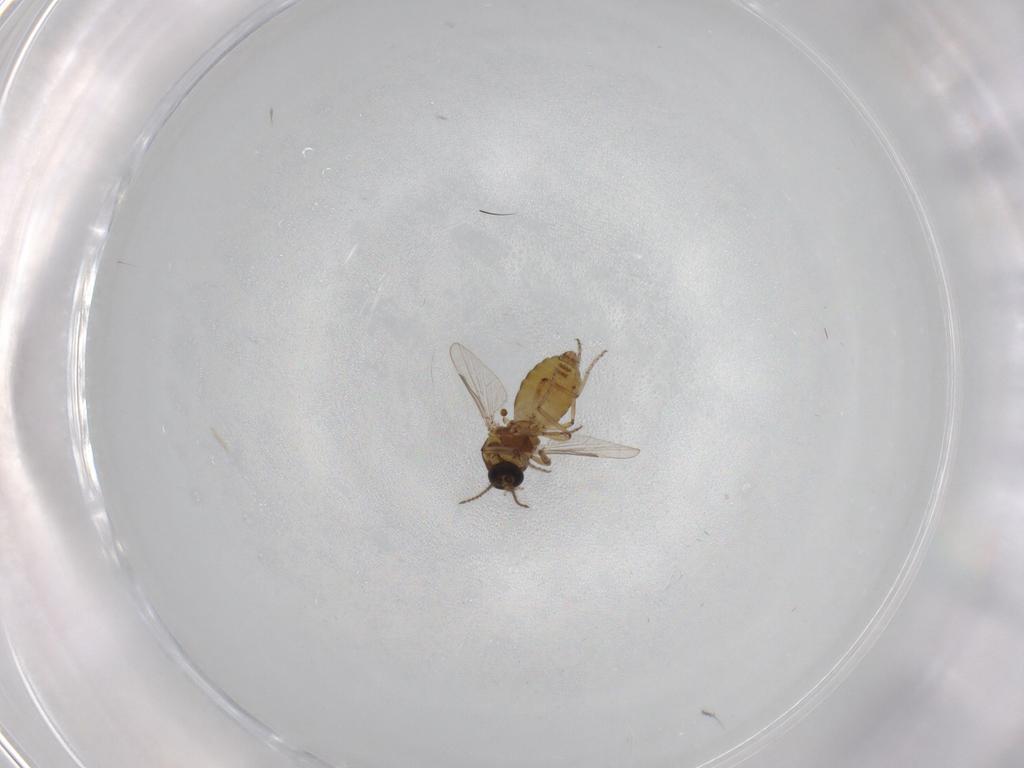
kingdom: Animalia
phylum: Arthropoda
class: Insecta
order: Diptera
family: Ceratopogonidae
